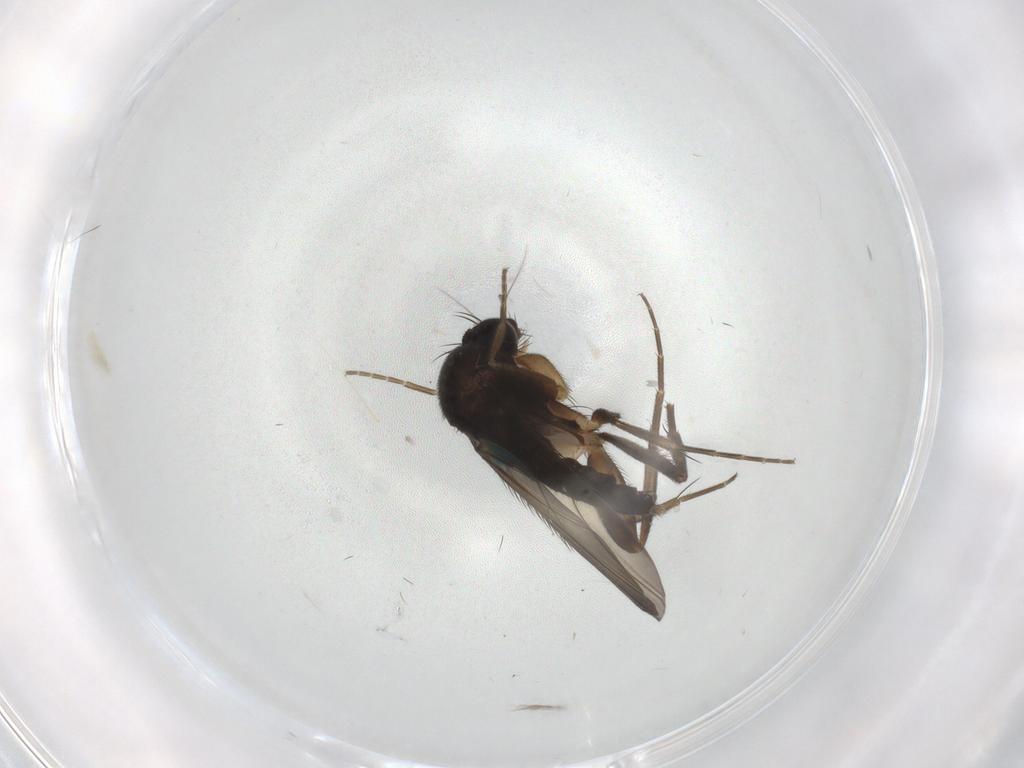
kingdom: Animalia
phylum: Arthropoda
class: Insecta
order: Diptera
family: Phoridae
